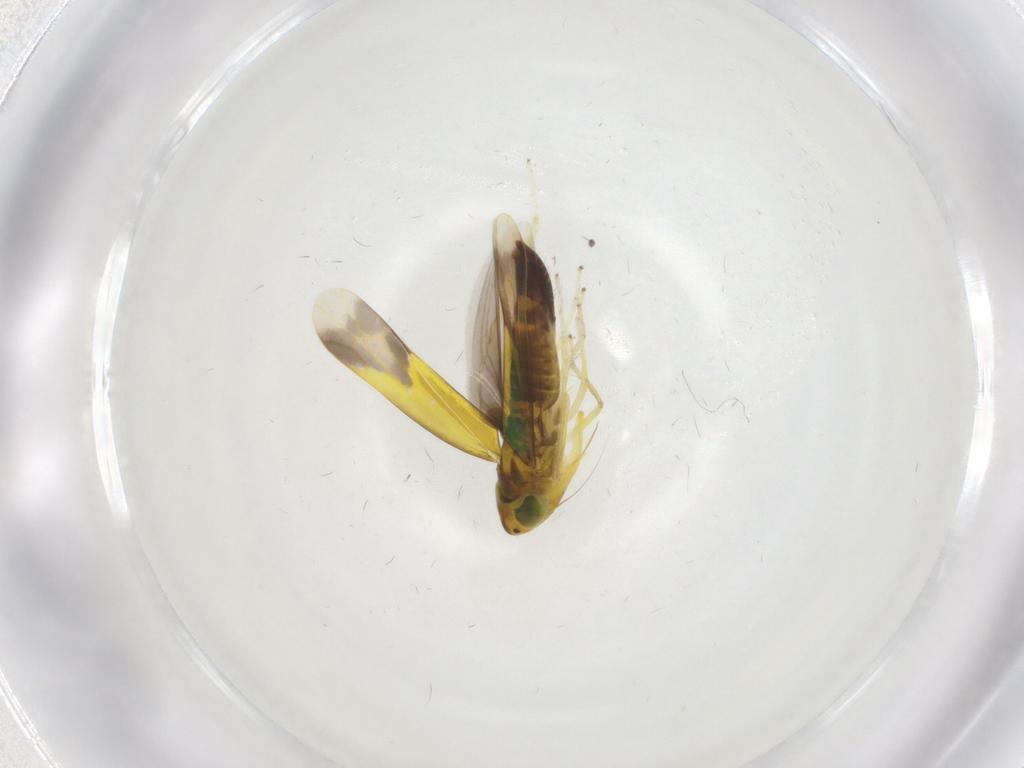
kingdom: Animalia
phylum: Arthropoda
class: Insecta
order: Hemiptera
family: Cicadellidae
